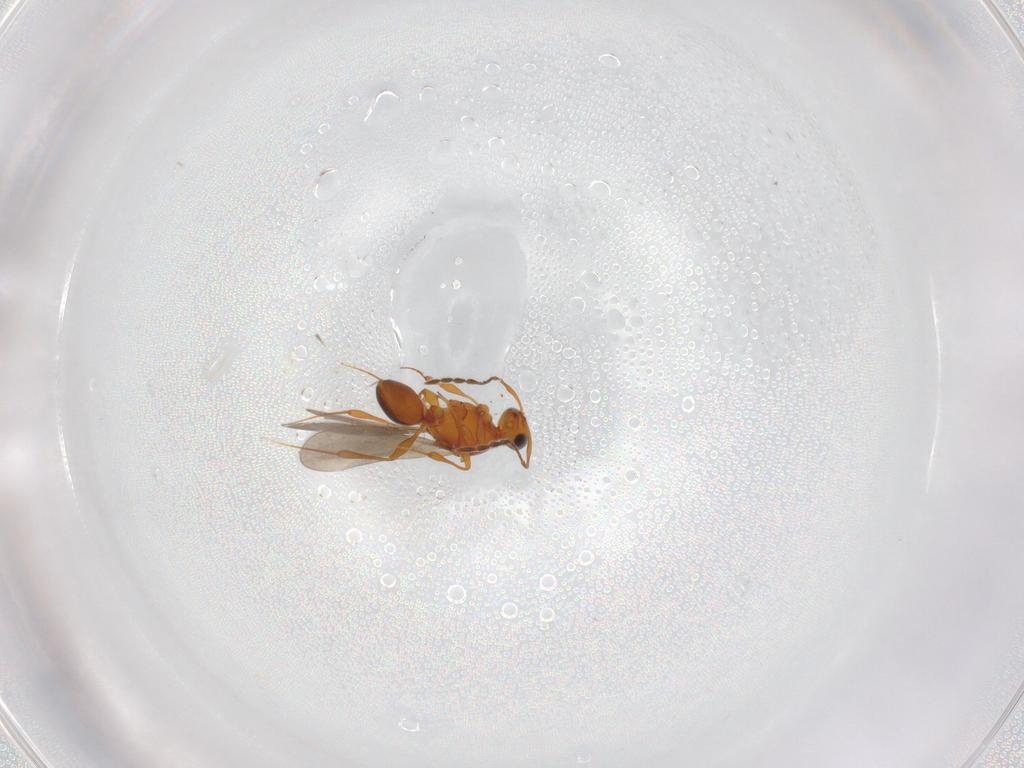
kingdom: Animalia
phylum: Arthropoda
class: Insecta
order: Hymenoptera
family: Platygastridae
